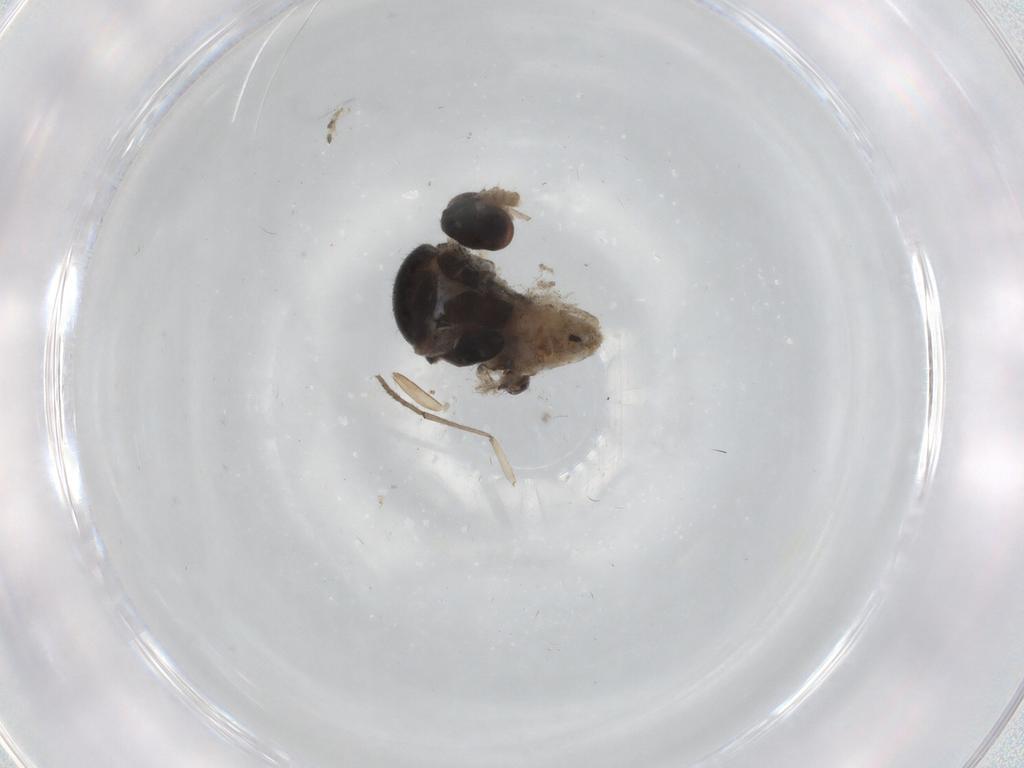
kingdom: Animalia
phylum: Arthropoda
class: Insecta
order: Diptera
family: Cecidomyiidae
